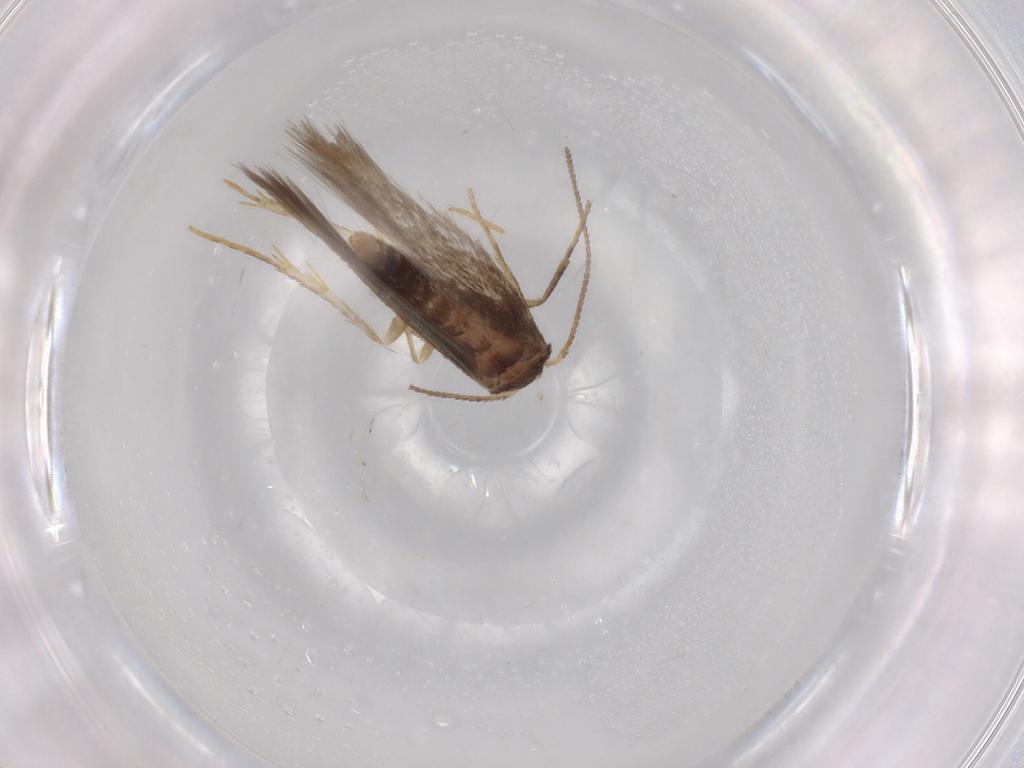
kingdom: Animalia
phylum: Arthropoda
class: Insecta
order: Lepidoptera
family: Nepticulidae
